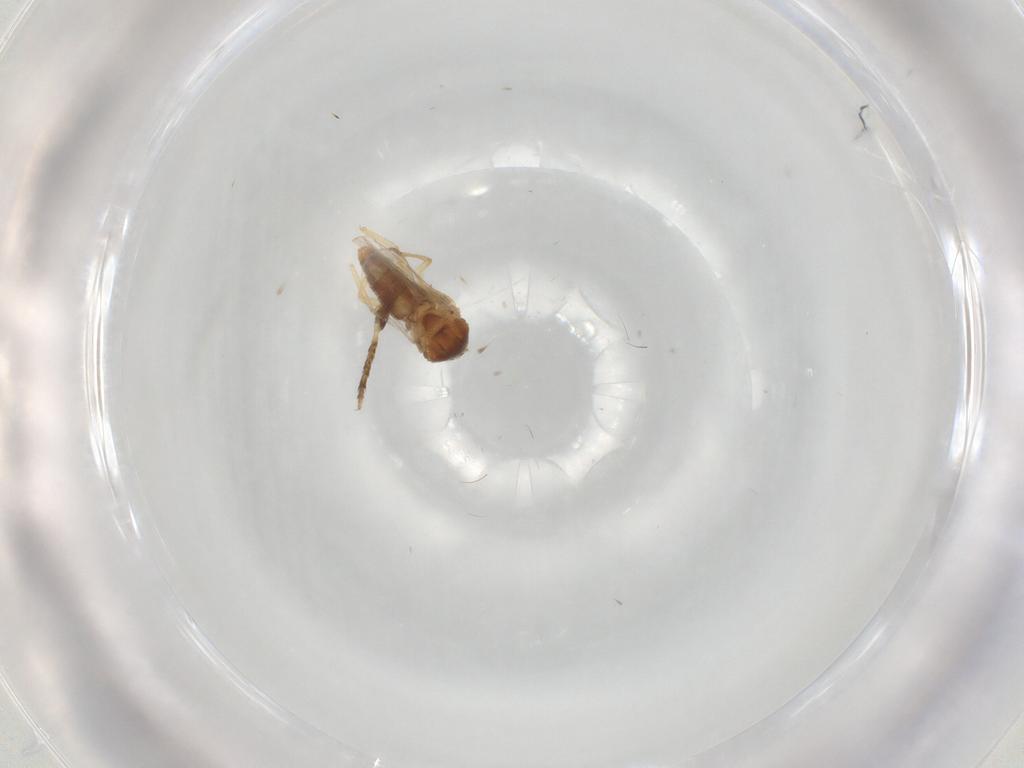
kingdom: Animalia
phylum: Arthropoda
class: Insecta
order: Diptera
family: Ceratopogonidae
